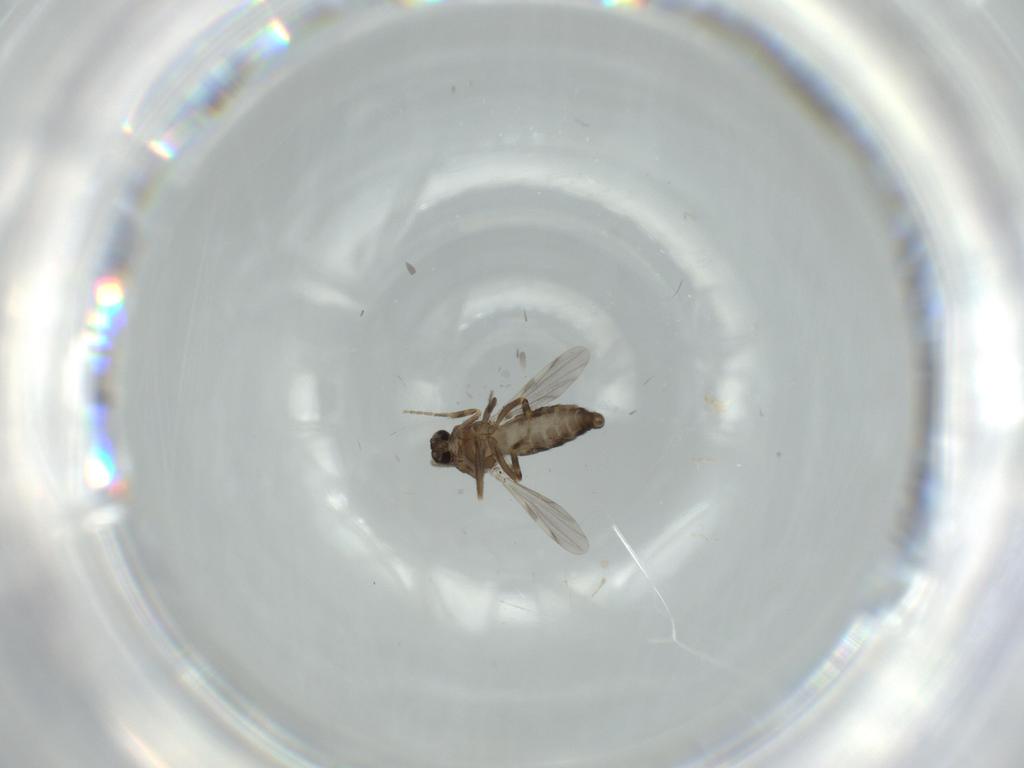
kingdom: Animalia
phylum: Arthropoda
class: Insecta
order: Diptera
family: Ceratopogonidae
